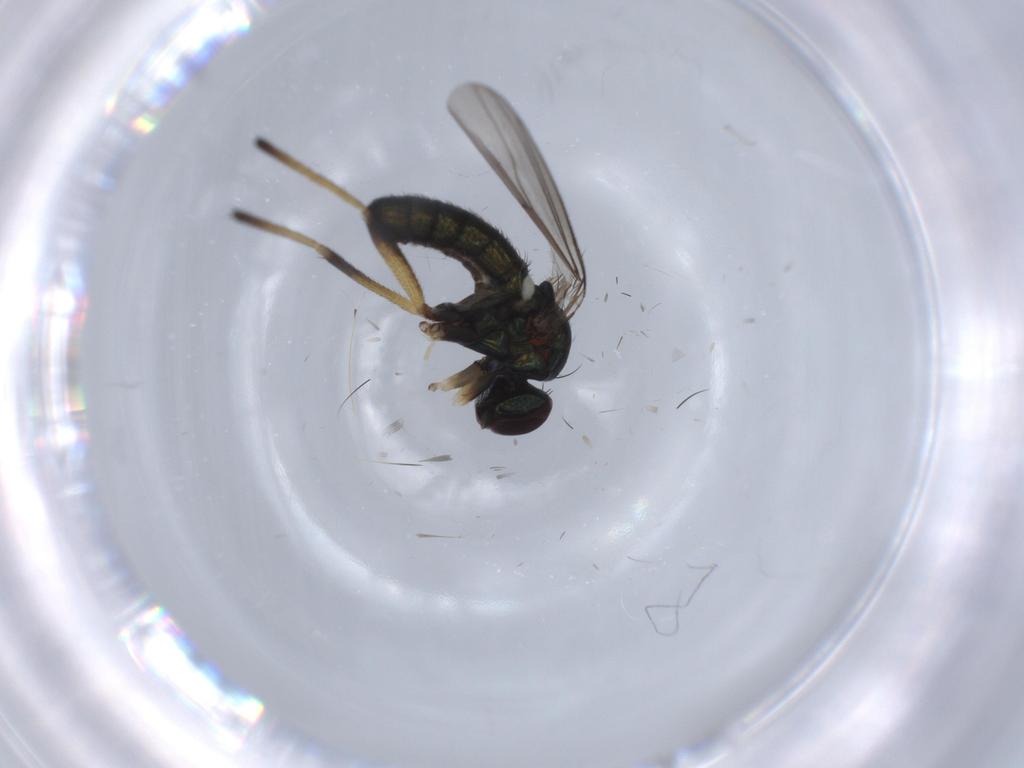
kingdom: Animalia
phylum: Arthropoda
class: Insecta
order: Diptera
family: Dolichopodidae
